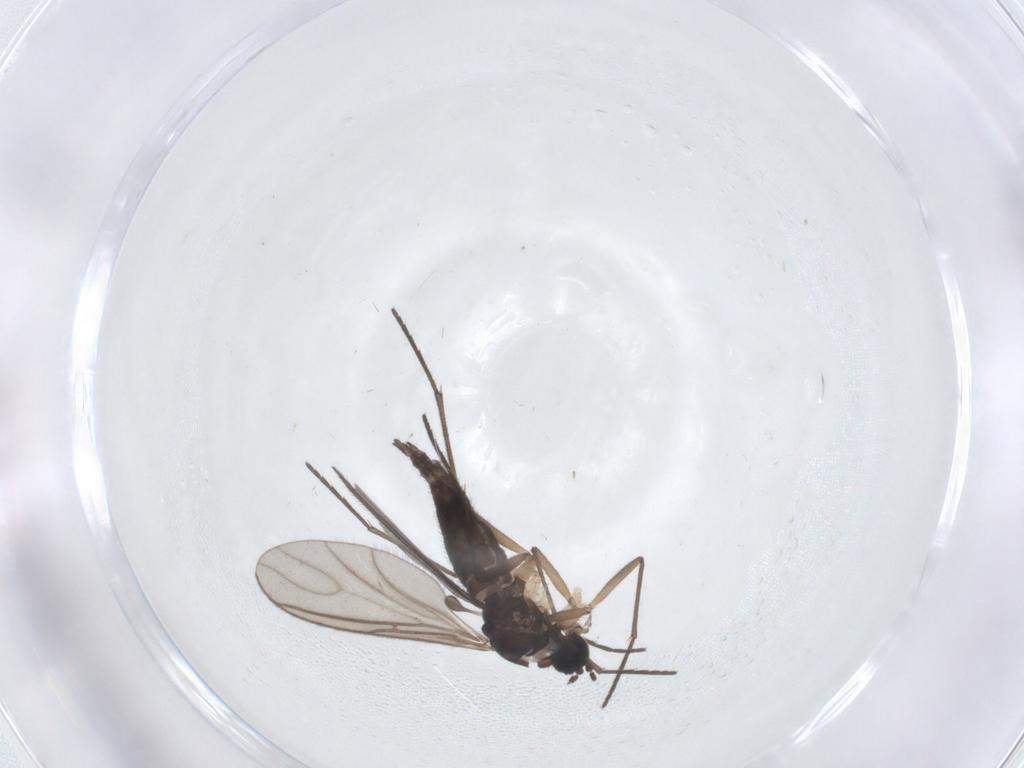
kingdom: Animalia
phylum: Arthropoda
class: Insecta
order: Diptera
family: Sciaridae
